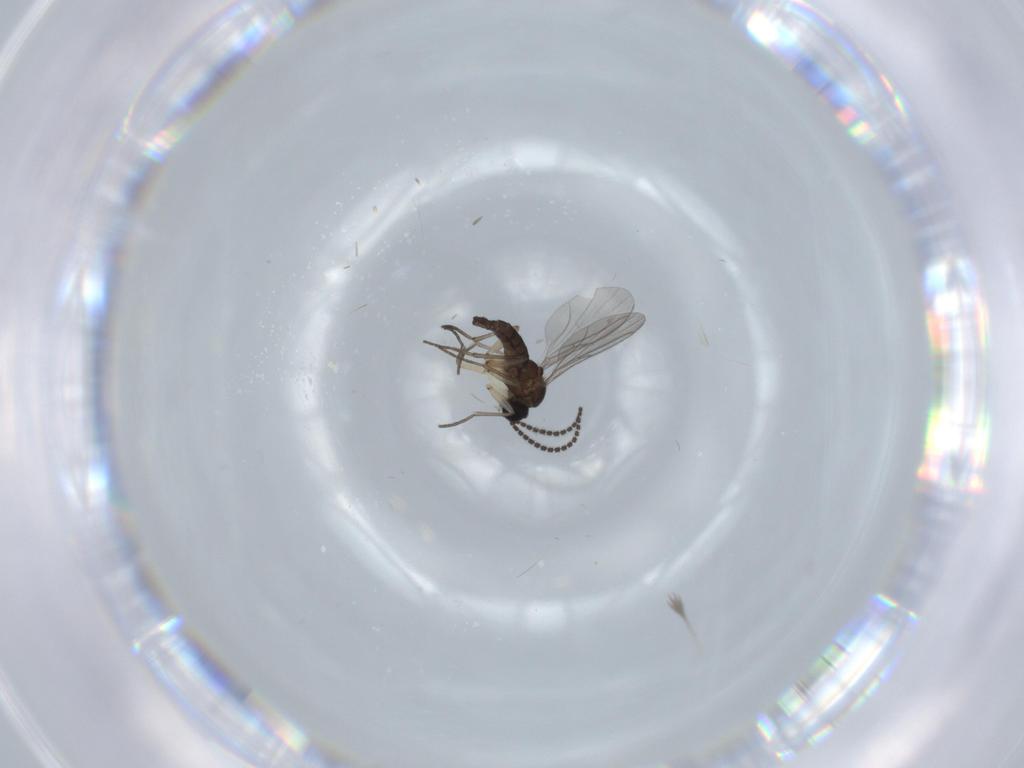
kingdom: Animalia
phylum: Arthropoda
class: Insecta
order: Diptera
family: Sciaridae
